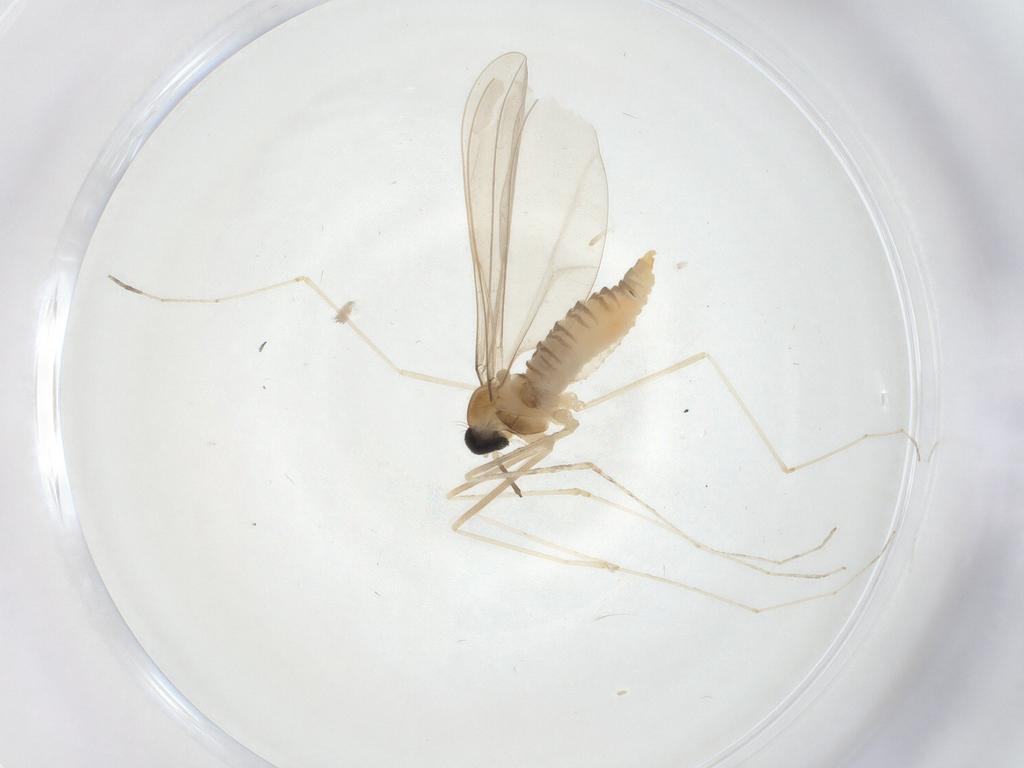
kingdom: Animalia
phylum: Arthropoda
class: Insecta
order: Diptera
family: Cecidomyiidae
